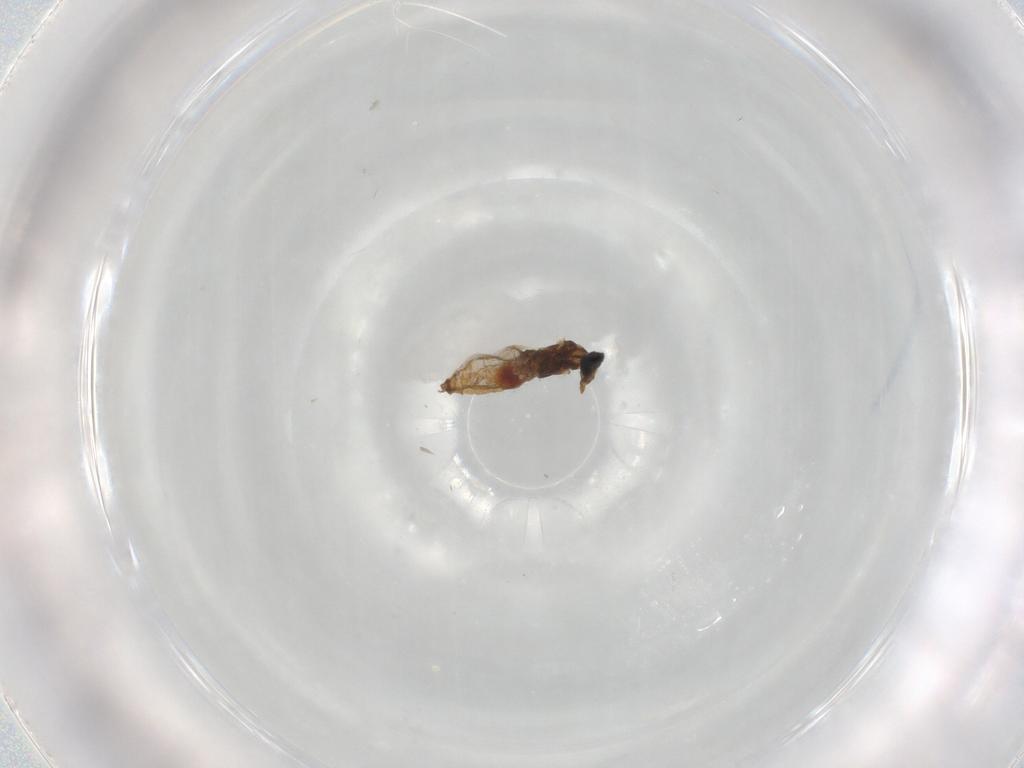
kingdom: Animalia
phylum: Arthropoda
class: Insecta
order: Diptera
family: Cecidomyiidae
